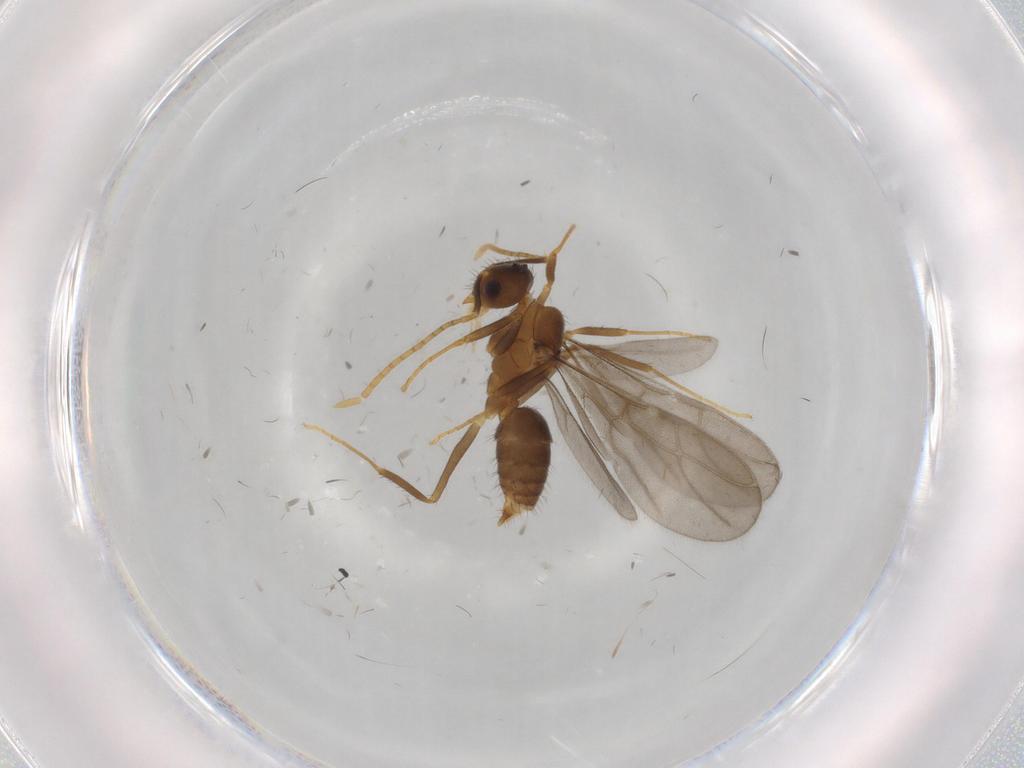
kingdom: Animalia
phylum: Arthropoda
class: Insecta
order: Hymenoptera
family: Formicidae
